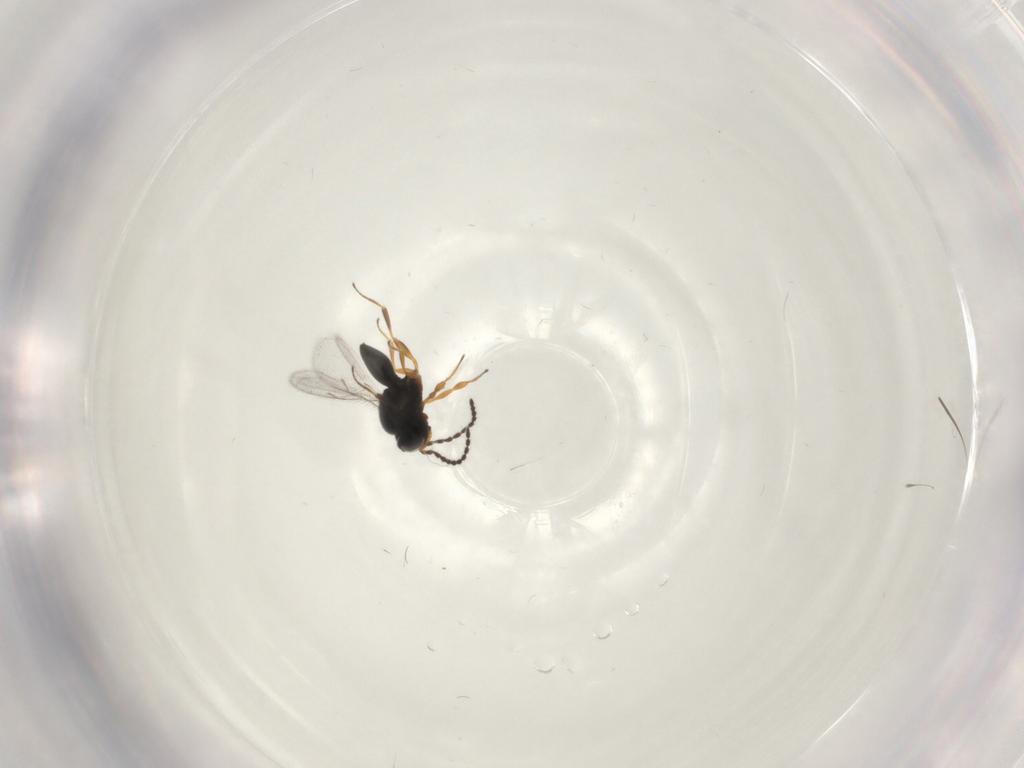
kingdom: Animalia
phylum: Arthropoda
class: Insecta
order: Hymenoptera
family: Scelionidae
